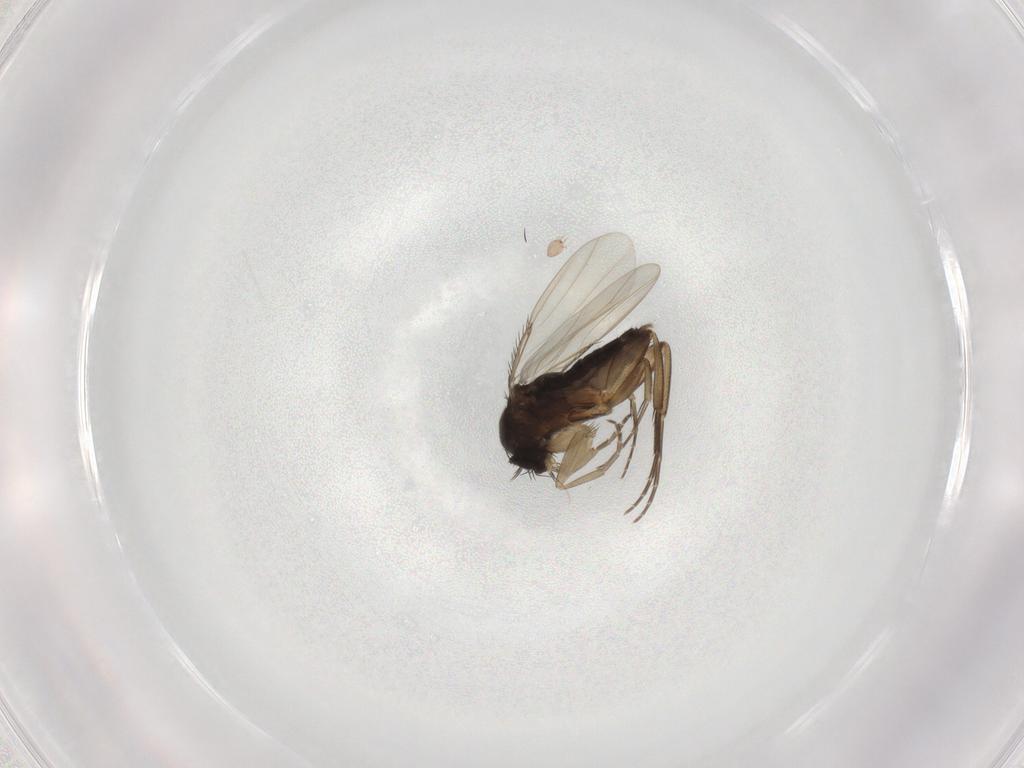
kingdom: Animalia
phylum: Arthropoda
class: Insecta
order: Diptera
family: Phoridae
